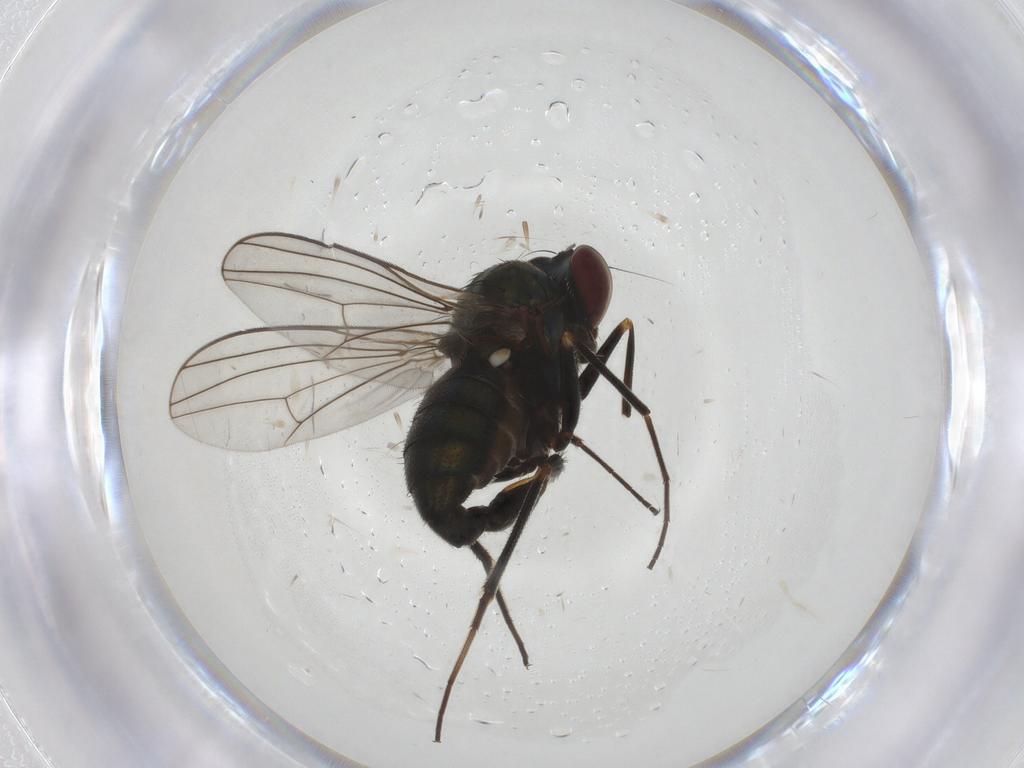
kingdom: Animalia
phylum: Arthropoda
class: Insecta
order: Diptera
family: Dolichopodidae
